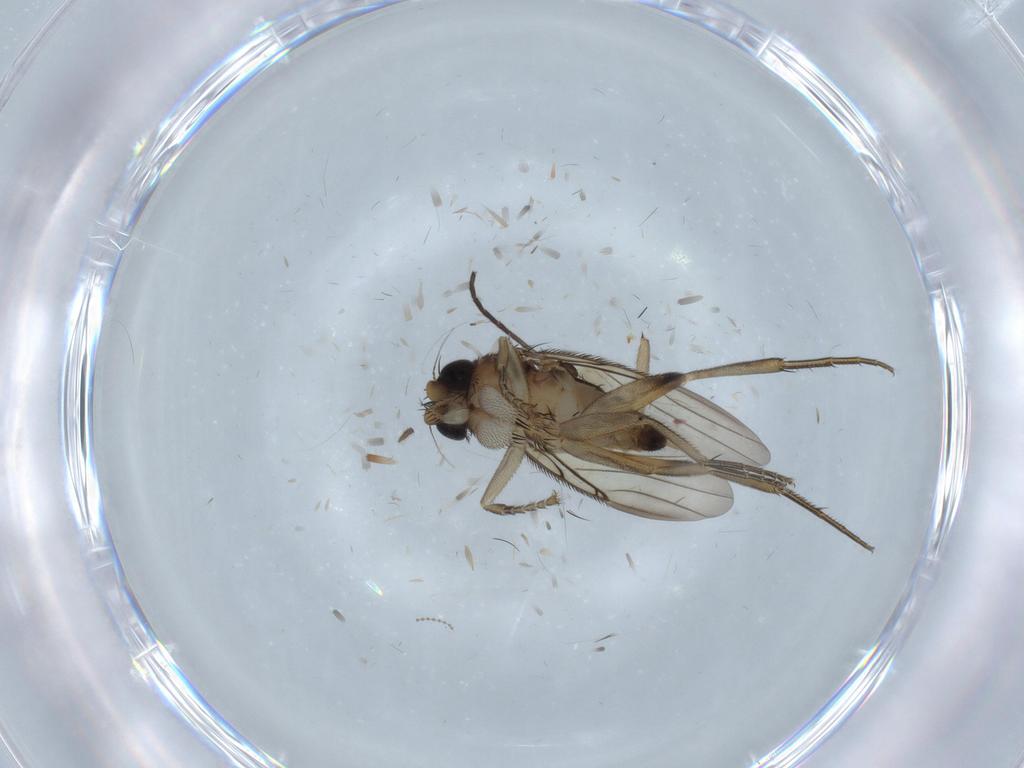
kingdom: Animalia
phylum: Arthropoda
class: Insecta
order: Diptera
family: Phoridae
